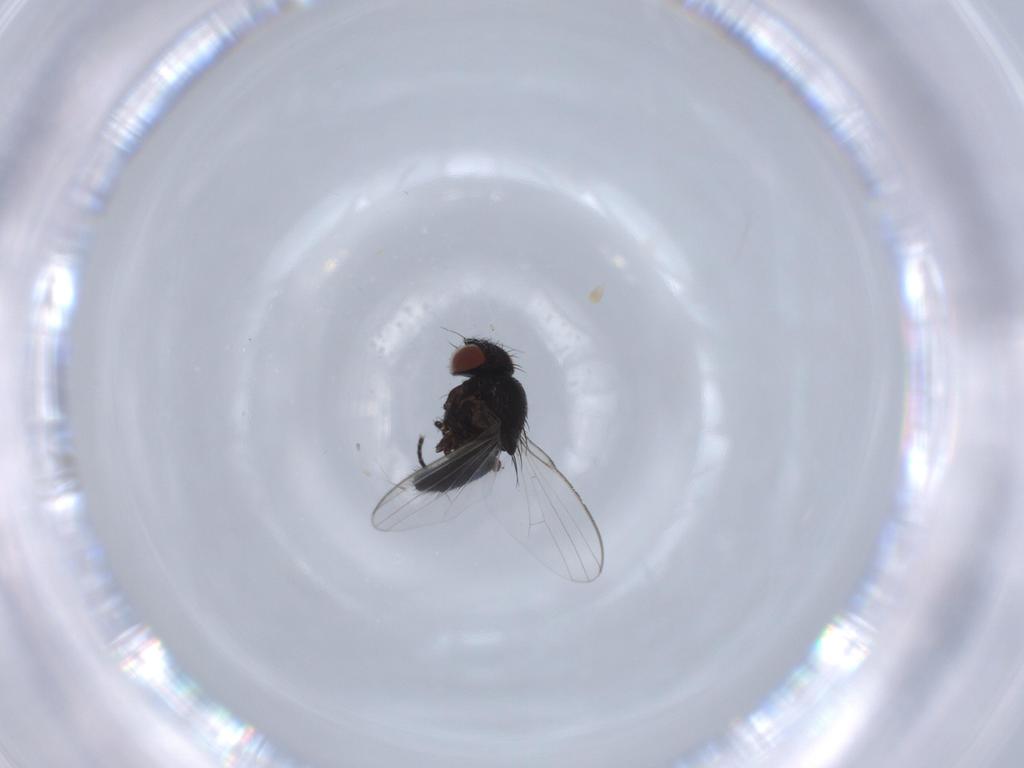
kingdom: Animalia
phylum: Arthropoda
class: Insecta
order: Diptera
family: Milichiidae
